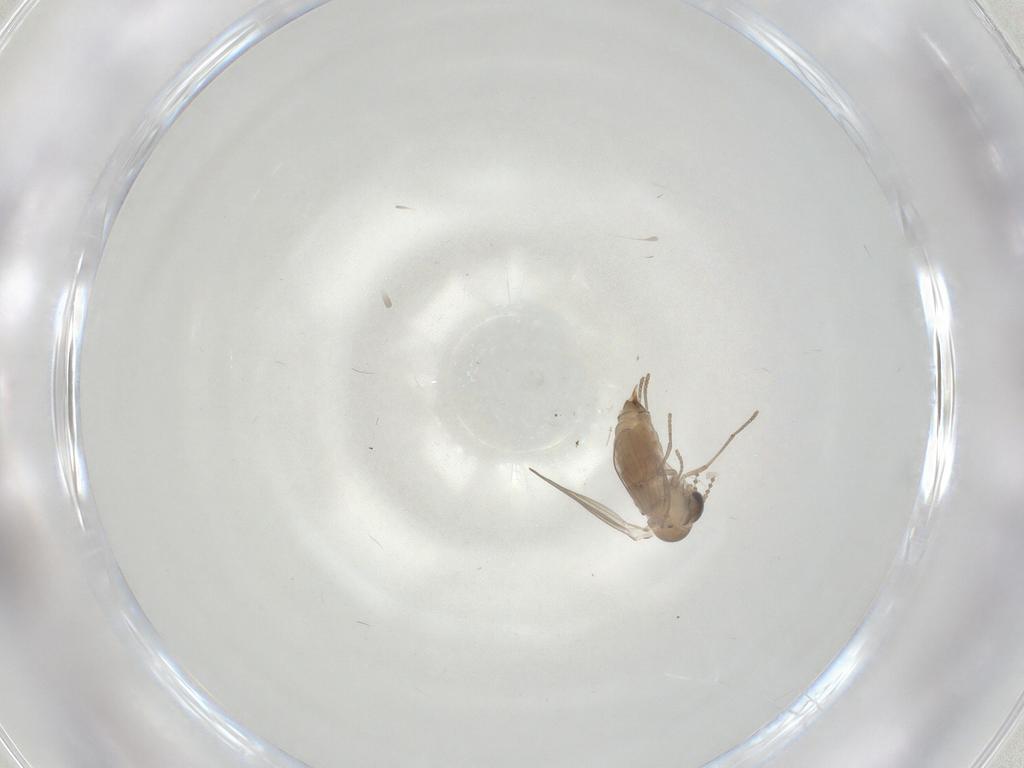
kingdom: Animalia
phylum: Arthropoda
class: Insecta
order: Diptera
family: Psychodidae
